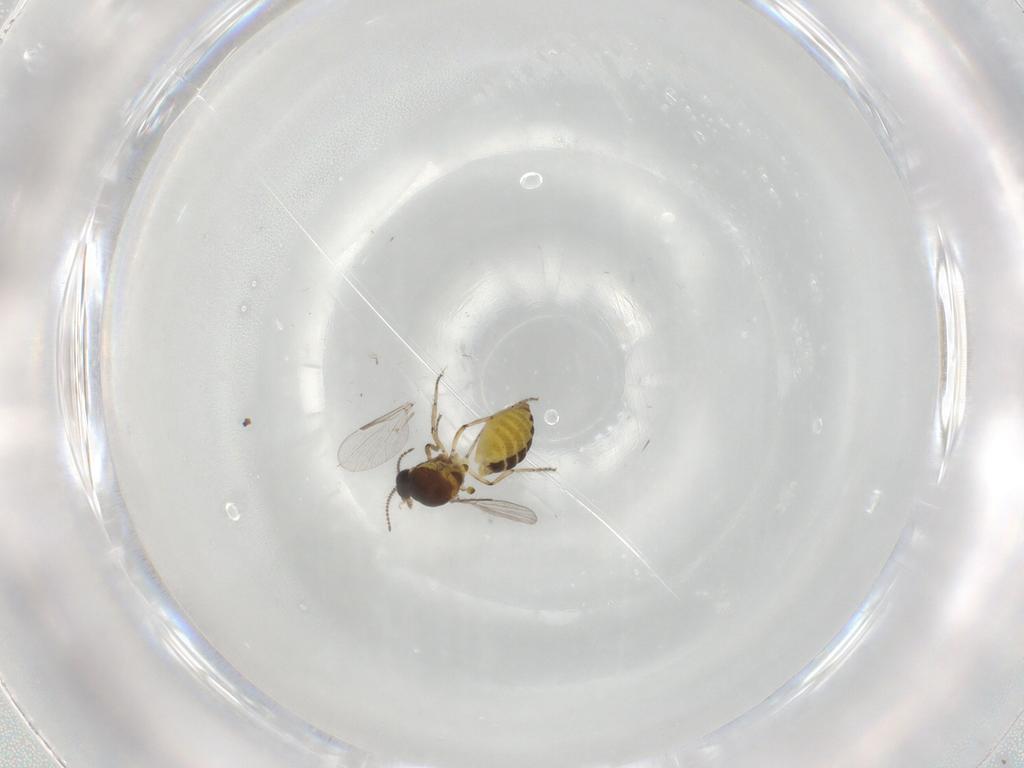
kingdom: Animalia
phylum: Arthropoda
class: Insecta
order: Diptera
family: Ceratopogonidae
